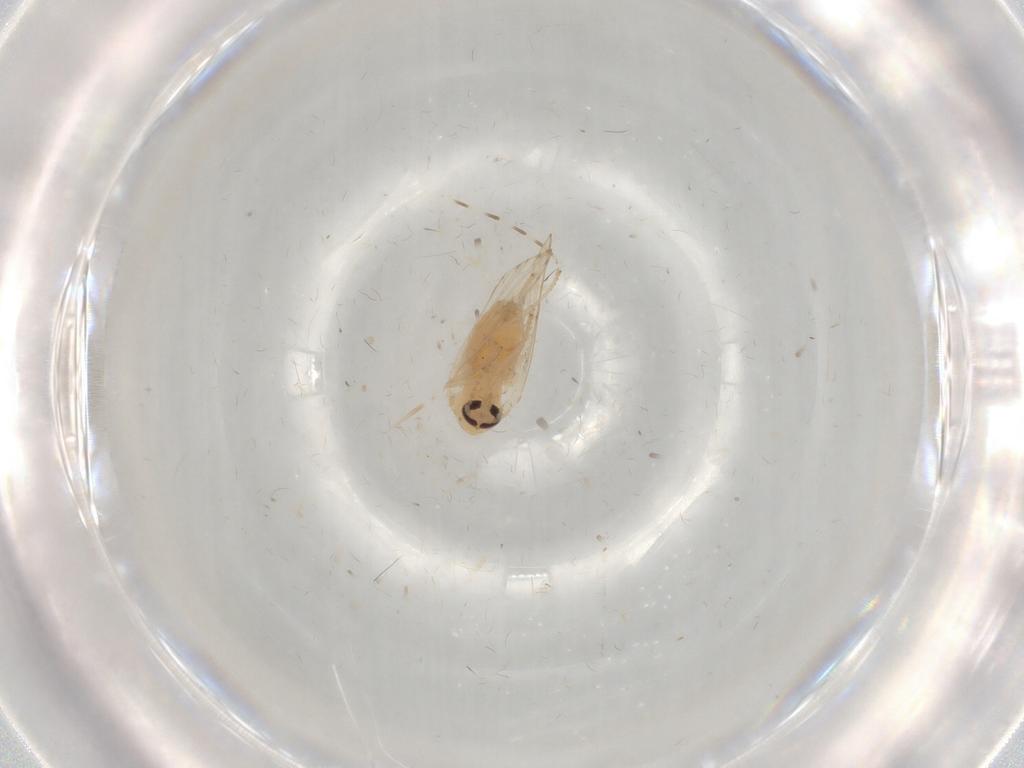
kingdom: Animalia
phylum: Arthropoda
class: Insecta
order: Diptera
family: Psychodidae
